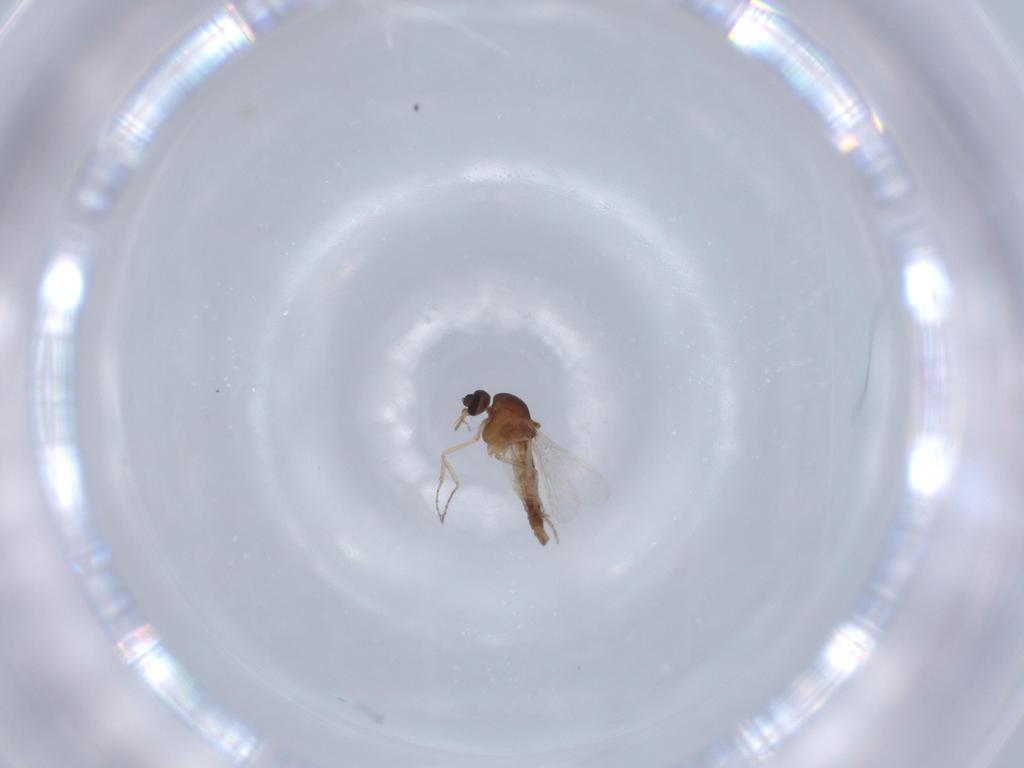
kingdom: Animalia
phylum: Arthropoda
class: Insecta
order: Diptera
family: Ceratopogonidae
